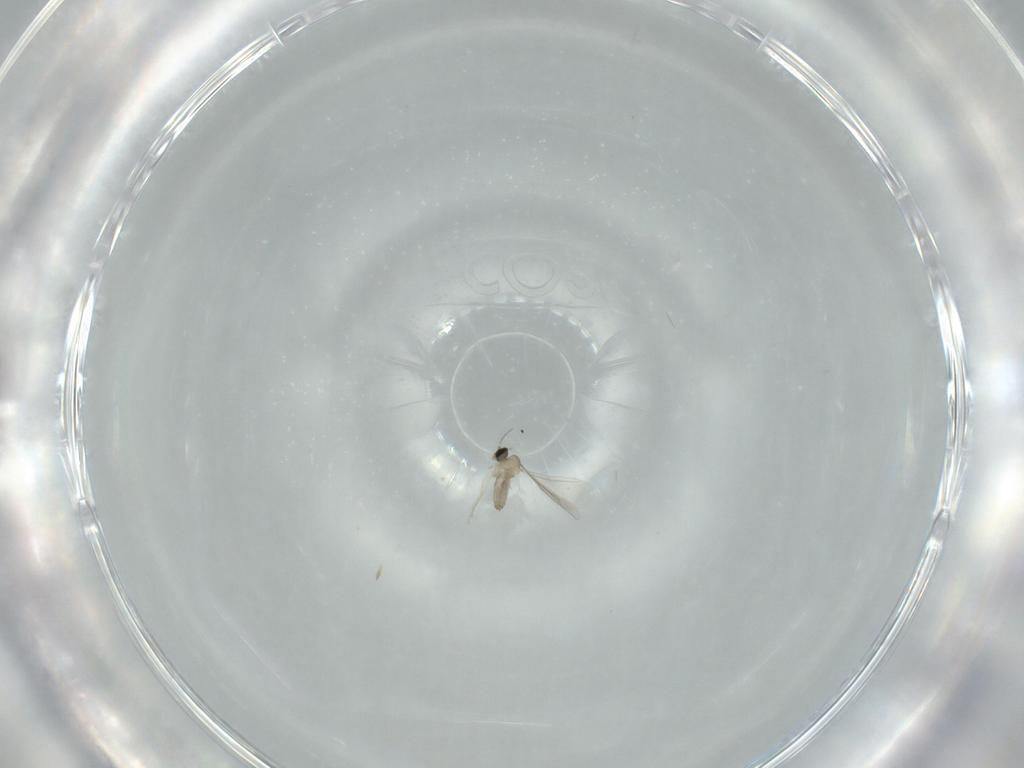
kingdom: Animalia
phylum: Arthropoda
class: Insecta
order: Diptera
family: Cecidomyiidae
